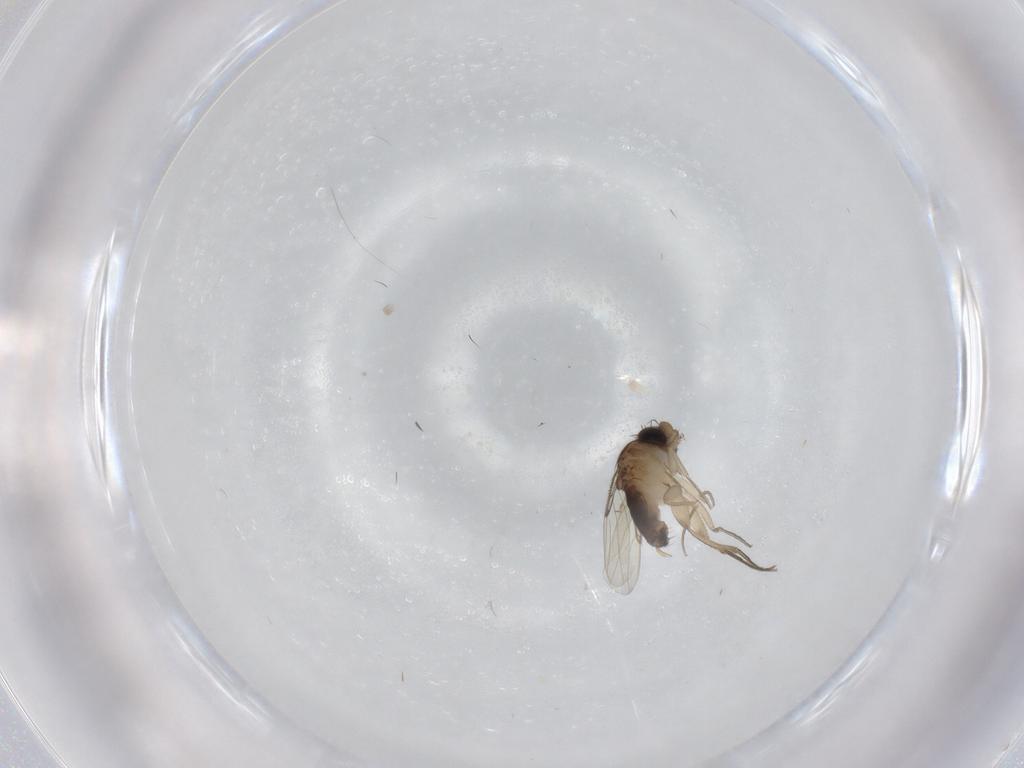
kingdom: Animalia
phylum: Arthropoda
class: Insecta
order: Diptera
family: Phoridae
